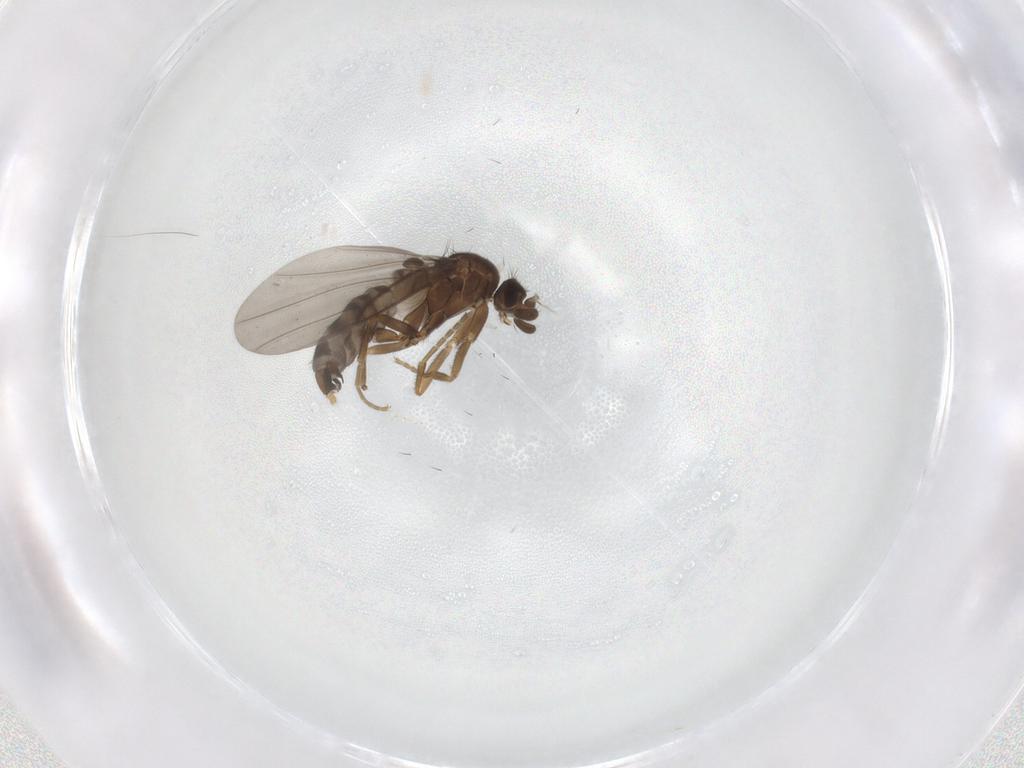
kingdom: Animalia
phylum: Arthropoda
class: Insecta
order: Diptera
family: Tabanidae
